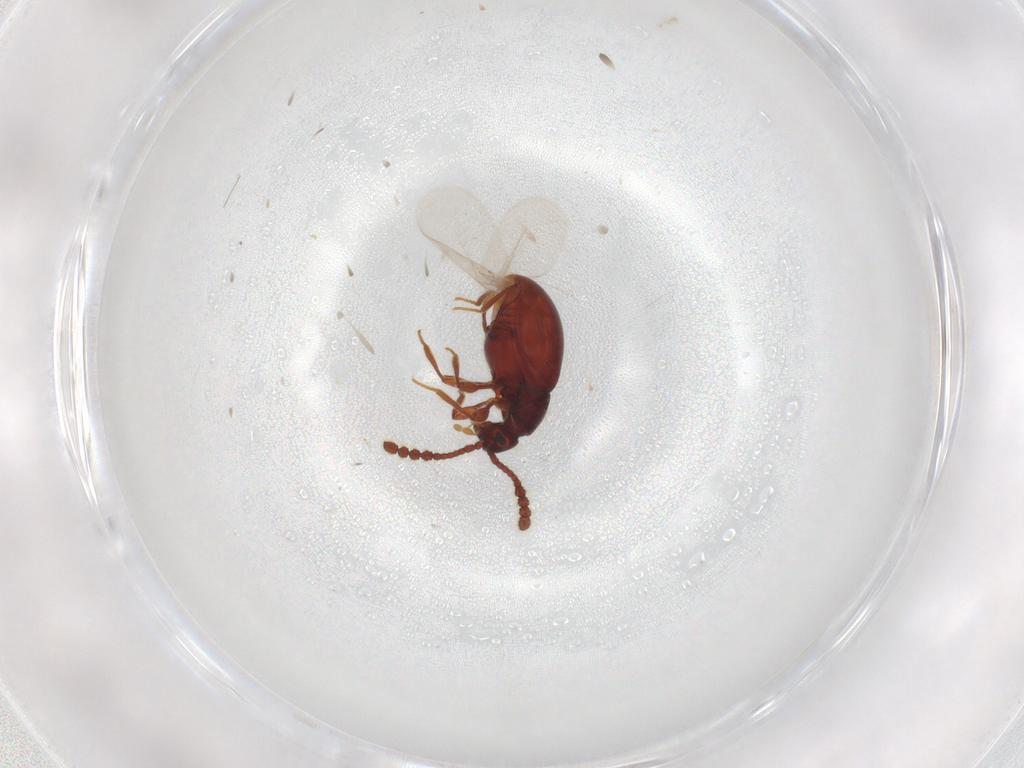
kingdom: Animalia
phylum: Arthropoda
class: Insecta
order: Coleoptera
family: Staphylinidae
